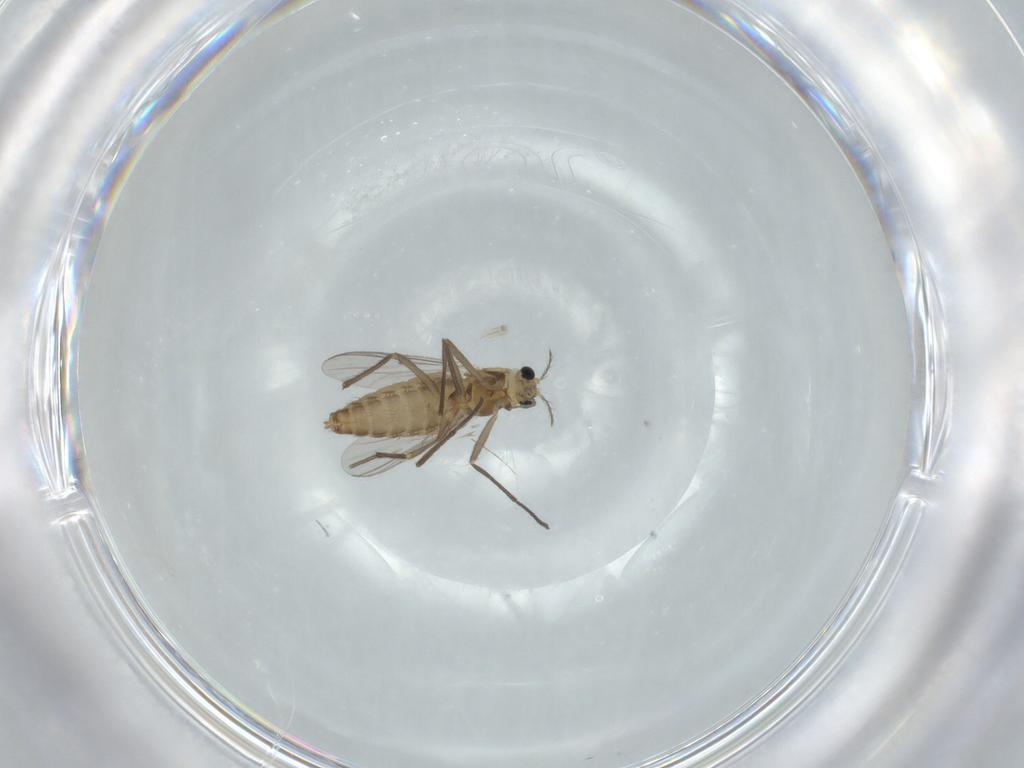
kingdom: Animalia
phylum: Arthropoda
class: Insecta
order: Diptera
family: Chironomidae
